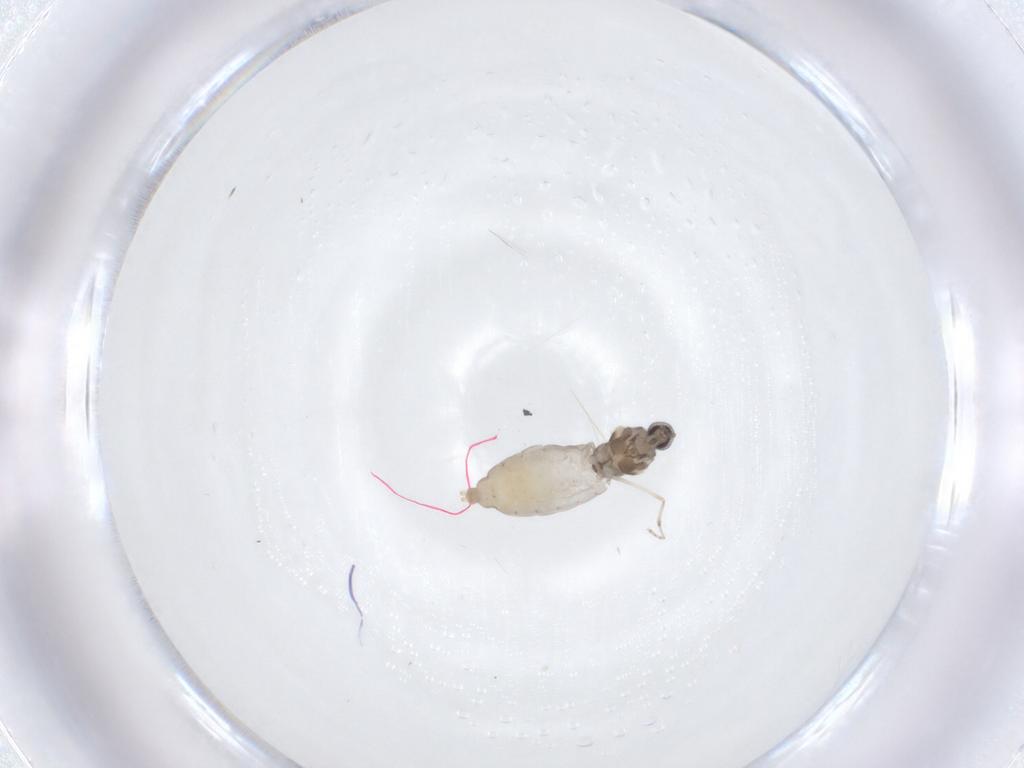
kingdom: Animalia
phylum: Arthropoda
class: Insecta
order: Diptera
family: Cecidomyiidae
